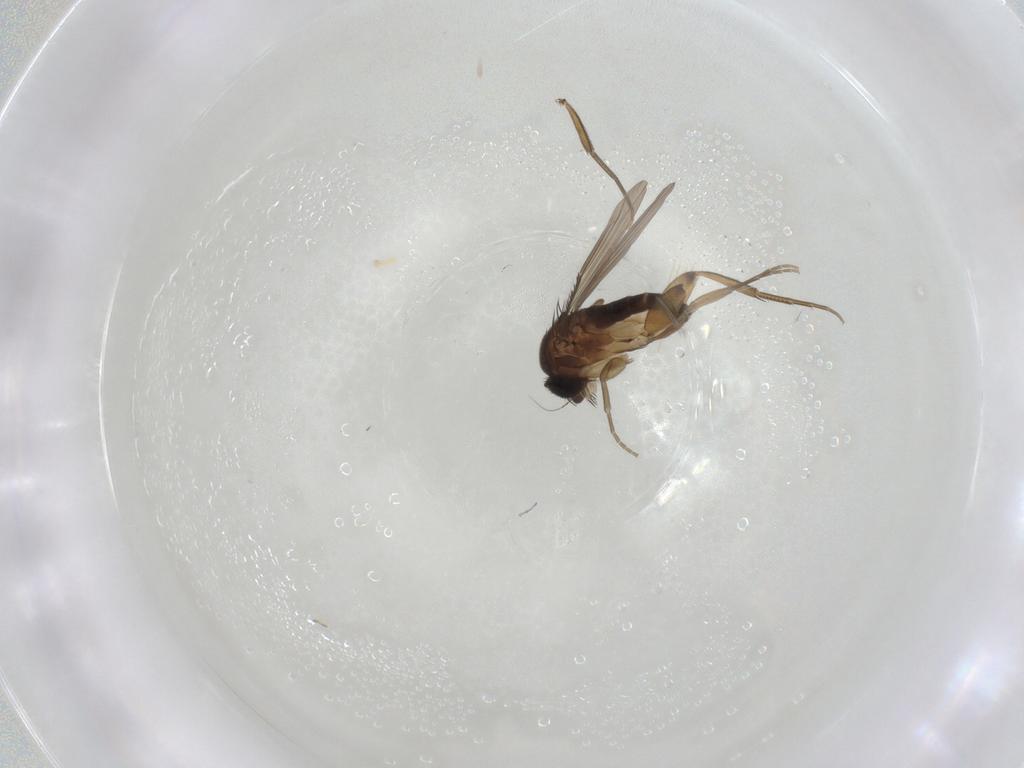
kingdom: Animalia
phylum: Arthropoda
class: Insecta
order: Diptera
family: Phoridae
